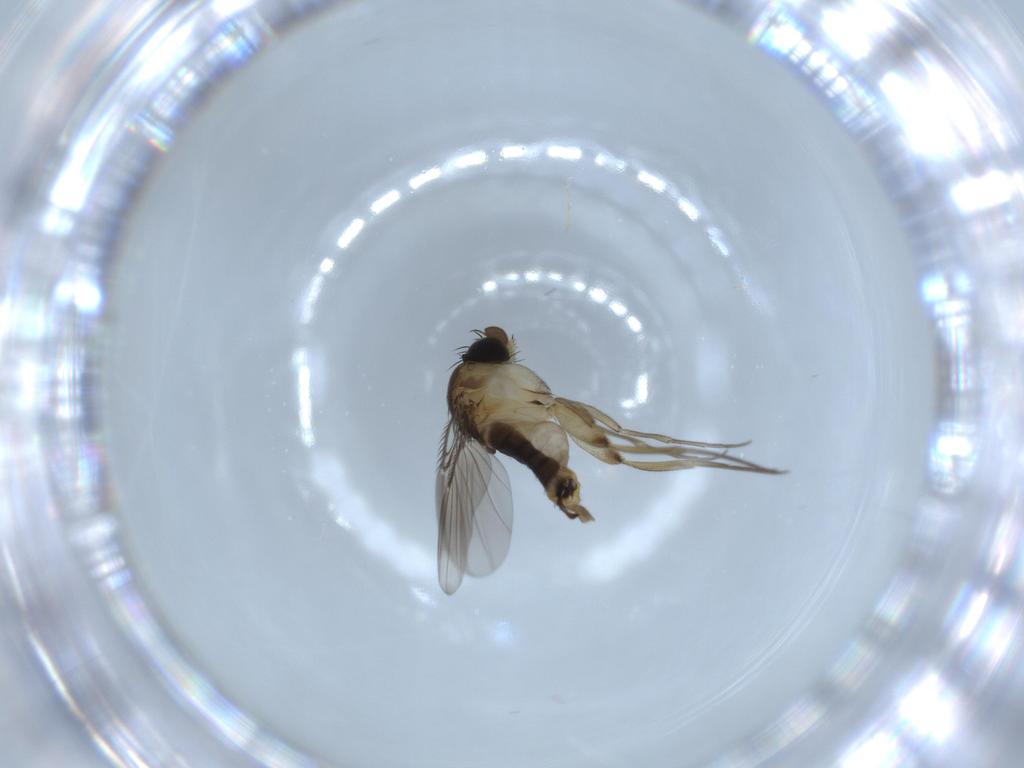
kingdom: Animalia
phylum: Arthropoda
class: Insecta
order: Diptera
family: Phoridae
